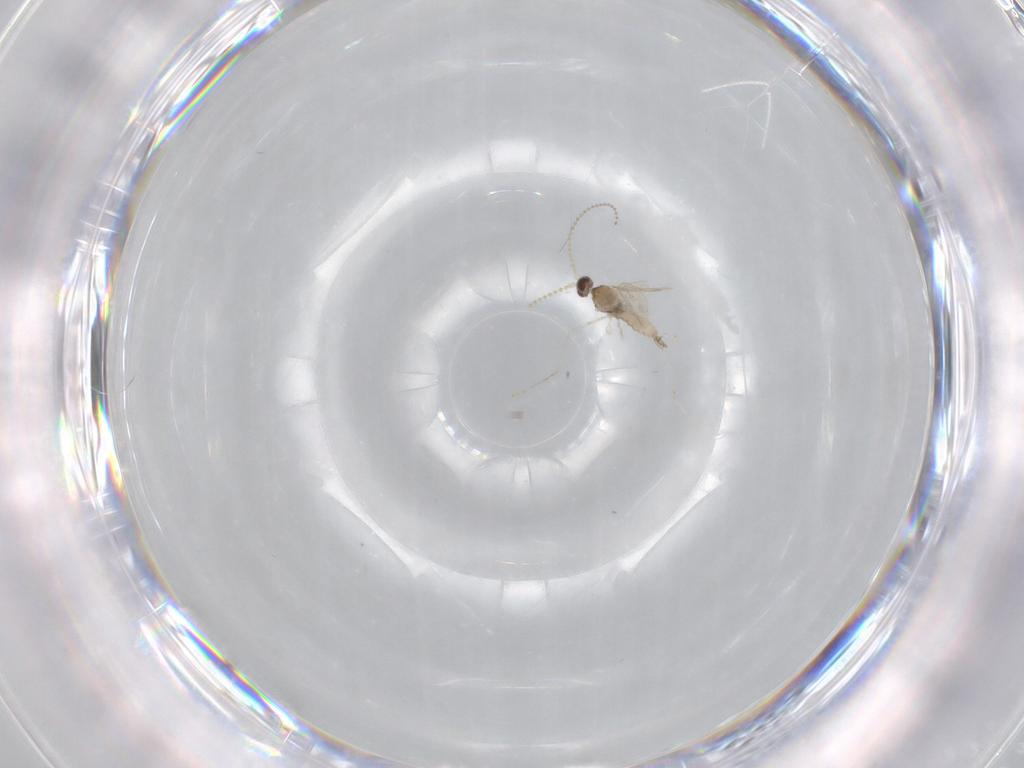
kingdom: Animalia
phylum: Arthropoda
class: Insecta
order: Diptera
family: Cecidomyiidae
